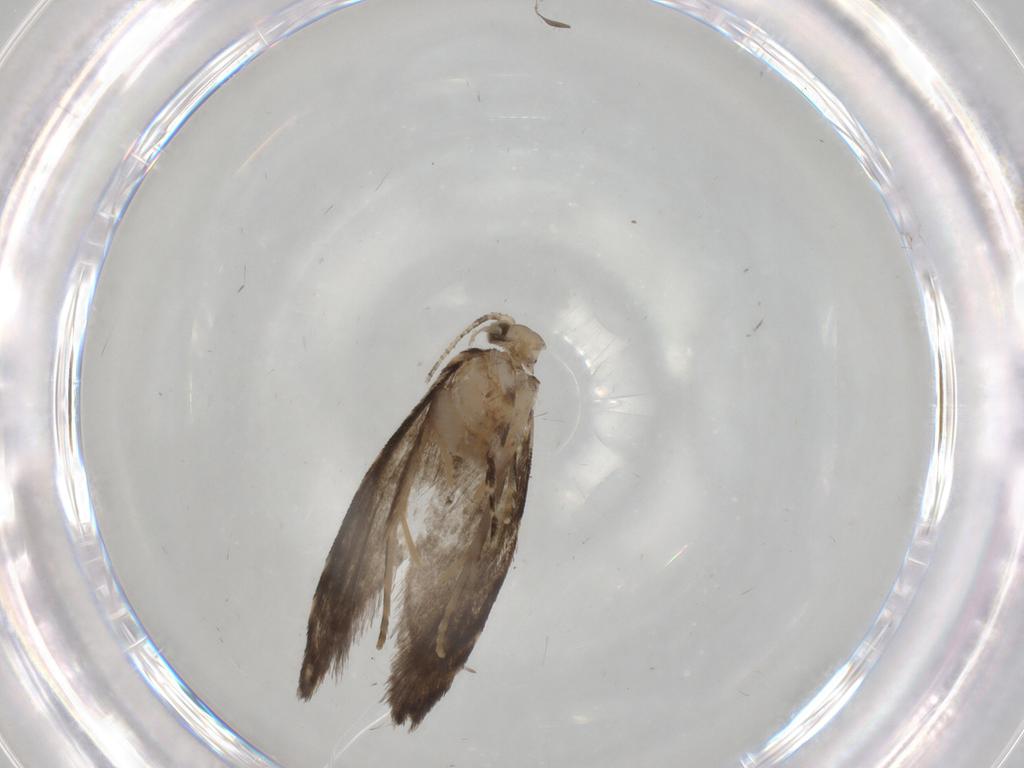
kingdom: Animalia
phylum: Arthropoda
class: Insecta
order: Lepidoptera
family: Tineidae
